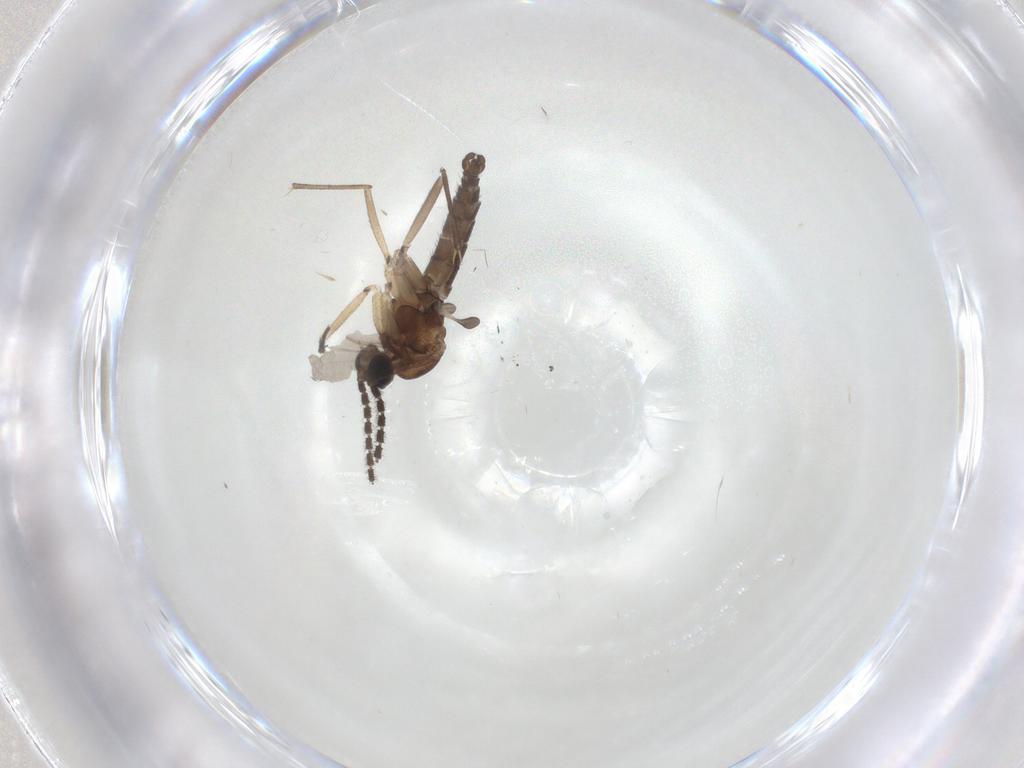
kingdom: Animalia
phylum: Arthropoda
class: Insecta
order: Diptera
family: Sciaridae
